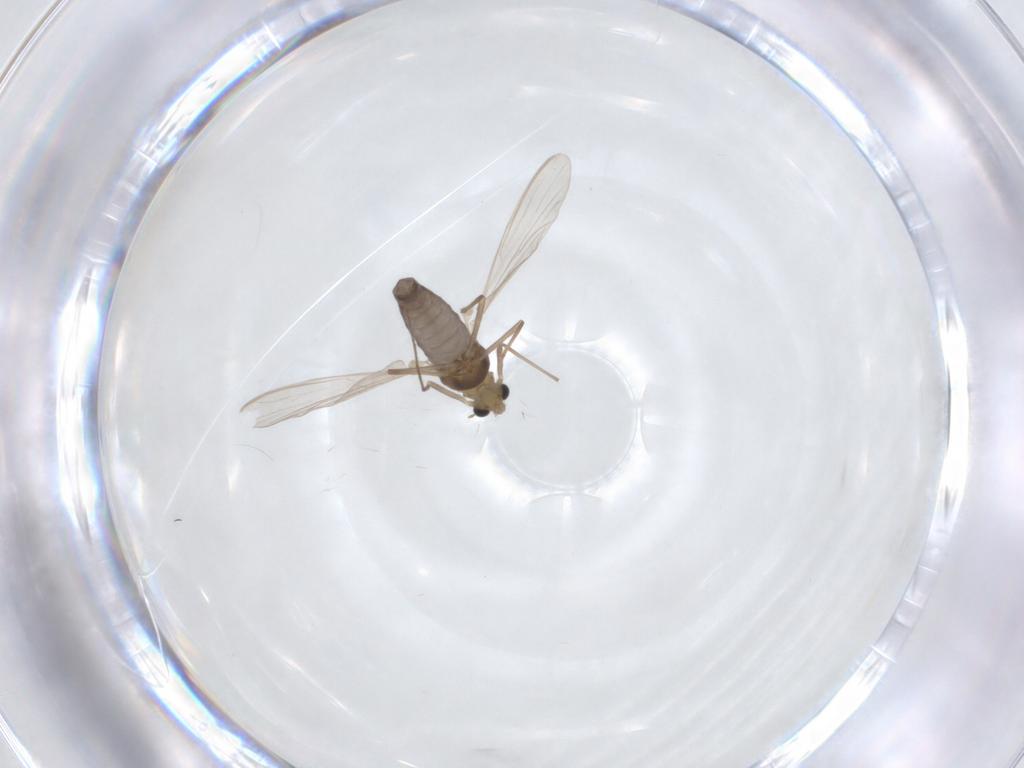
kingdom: Animalia
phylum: Arthropoda
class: Insecta
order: Diptera
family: Chironomidae
